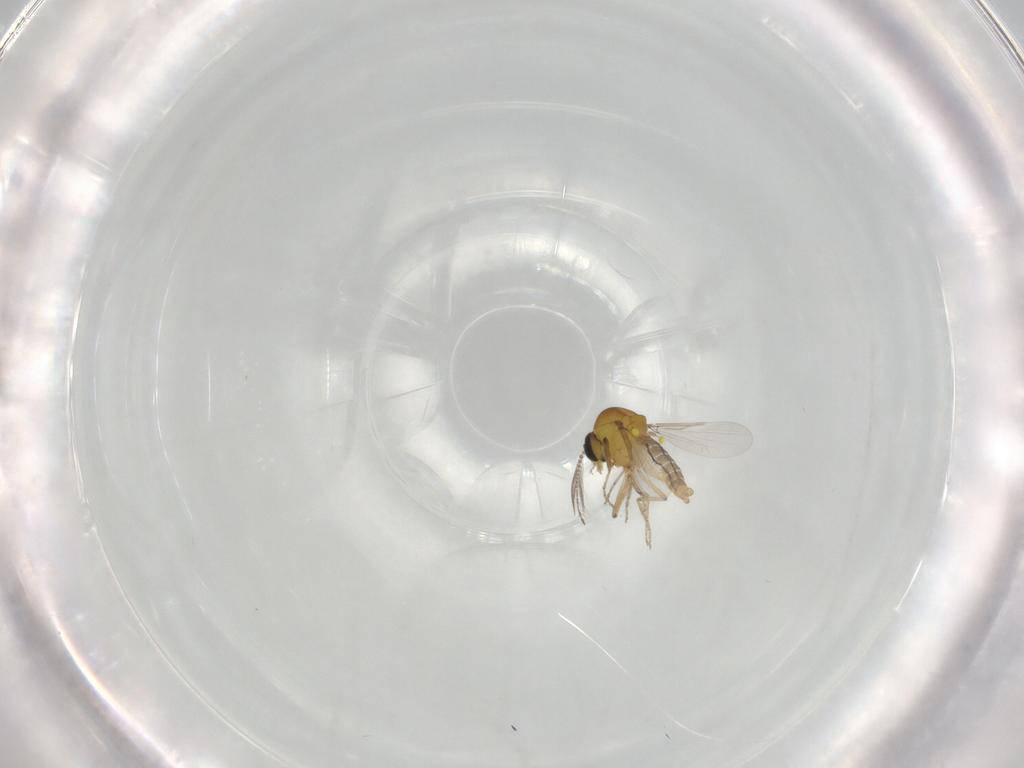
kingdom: Animalia
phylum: Arthropoda
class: Insecta
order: Diptera
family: Ceratopogonidae
